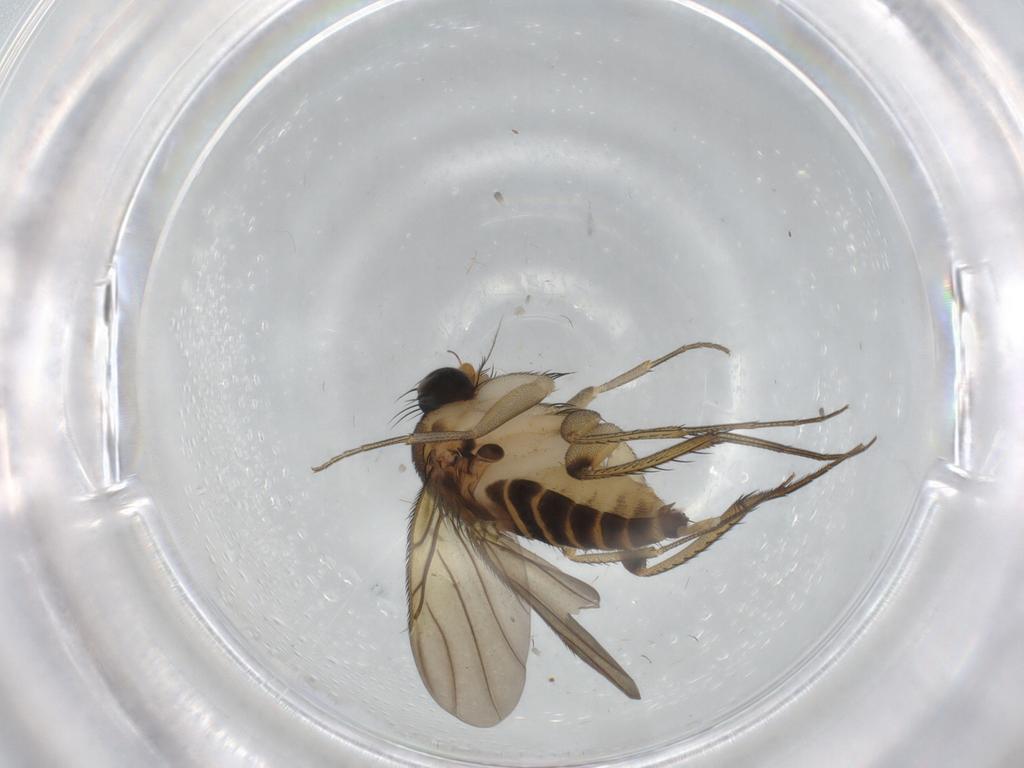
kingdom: Animalia
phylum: Arthropoda
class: Insecta
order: Diptera
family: Phoridae
